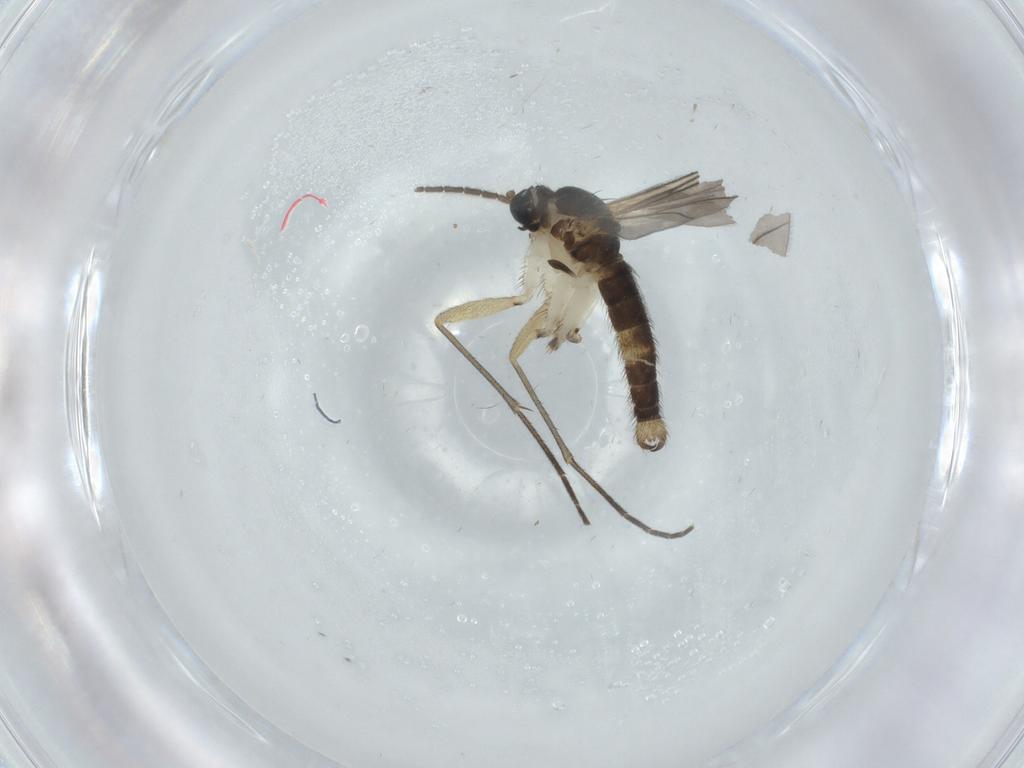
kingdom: Animalia
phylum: Arthropoda
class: Insecta
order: Diptera
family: Sciaridae
